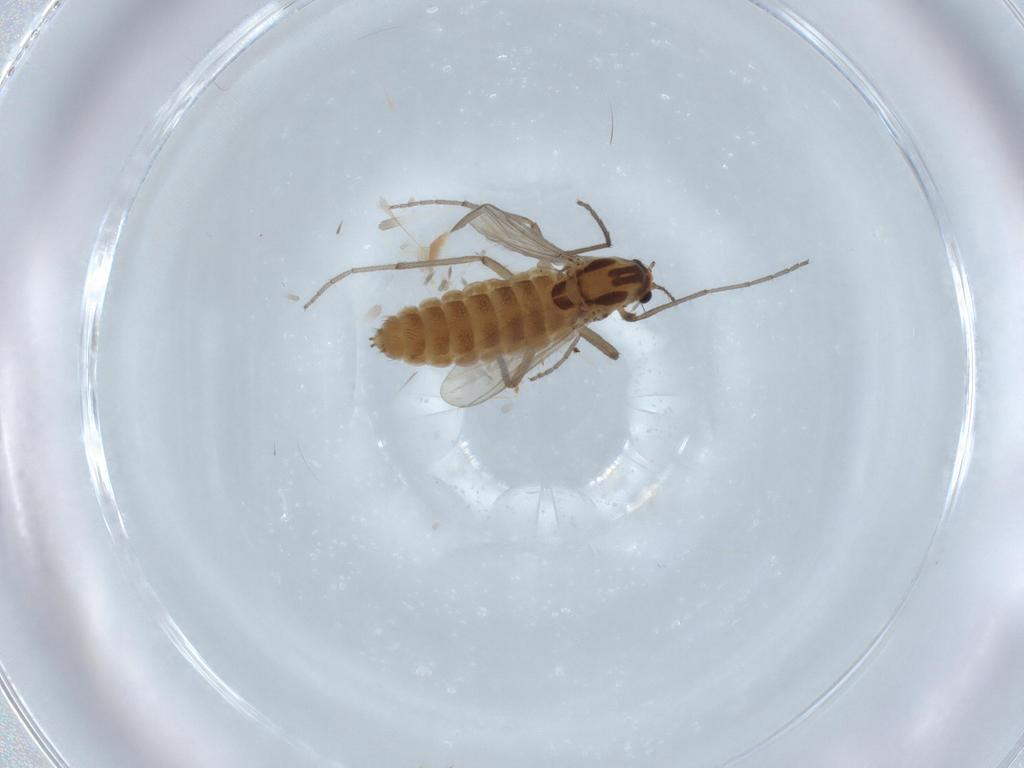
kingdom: Animalia
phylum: Arthropoda
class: Insecta
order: Diptera
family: Chironomidae
